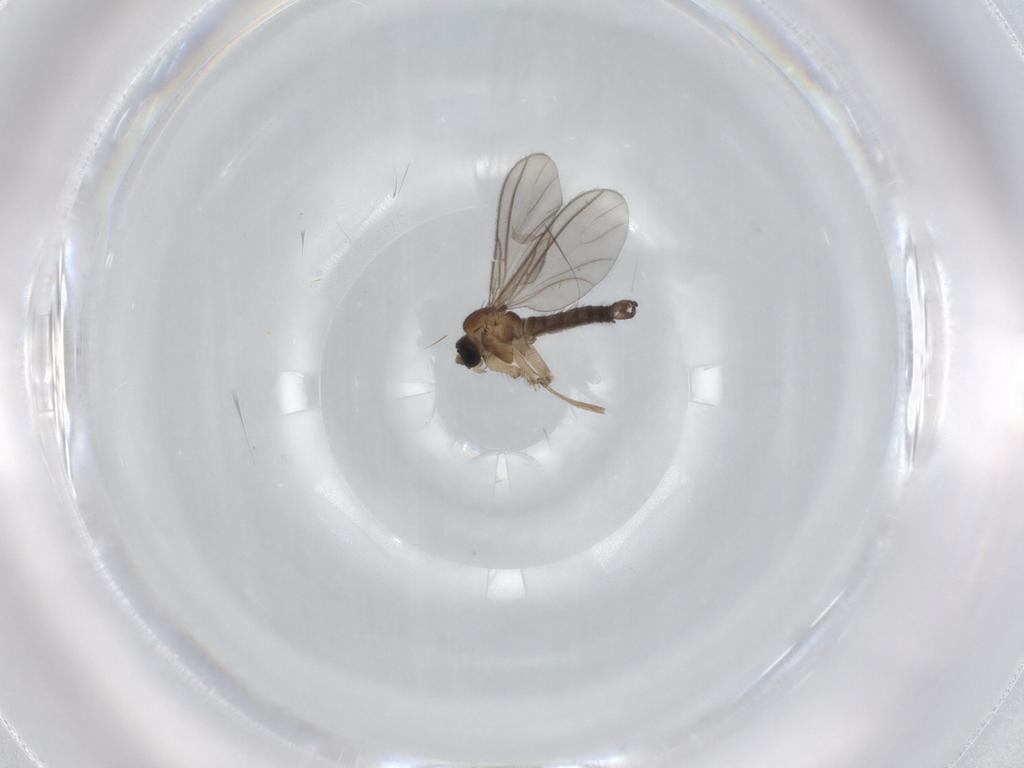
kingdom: Animalia
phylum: Arthropoda
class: Insecta
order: Diptera
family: Sciaridae
